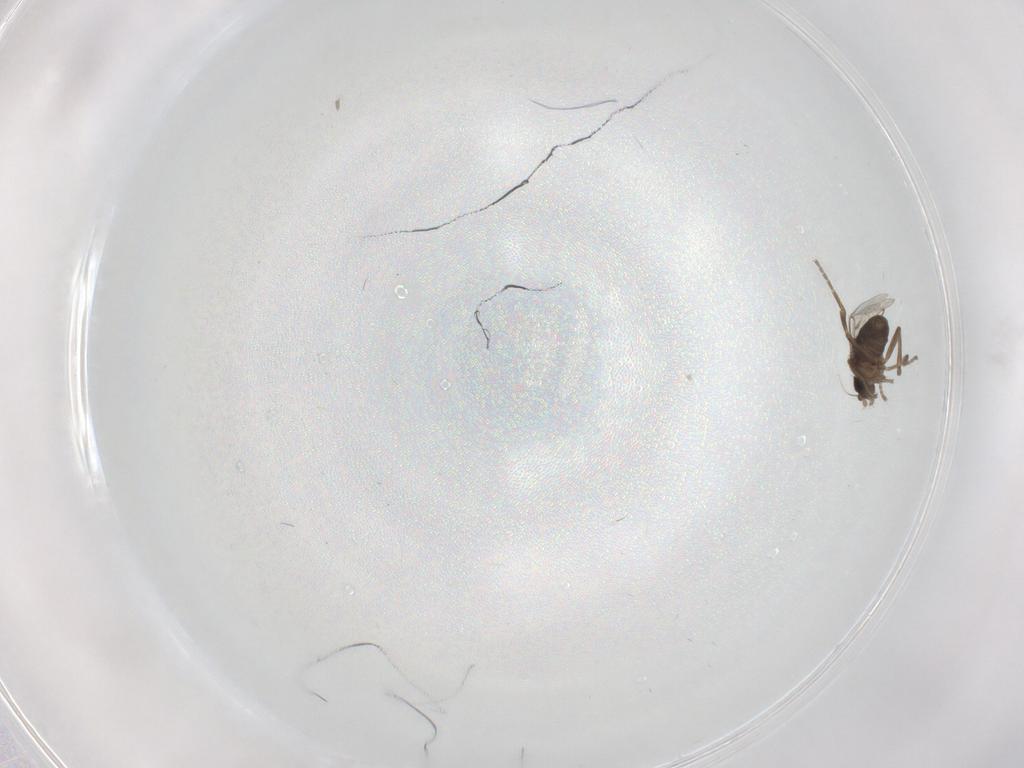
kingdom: Animalia
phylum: Arthropoda
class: Insecta
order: Diptera
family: Phoridae
